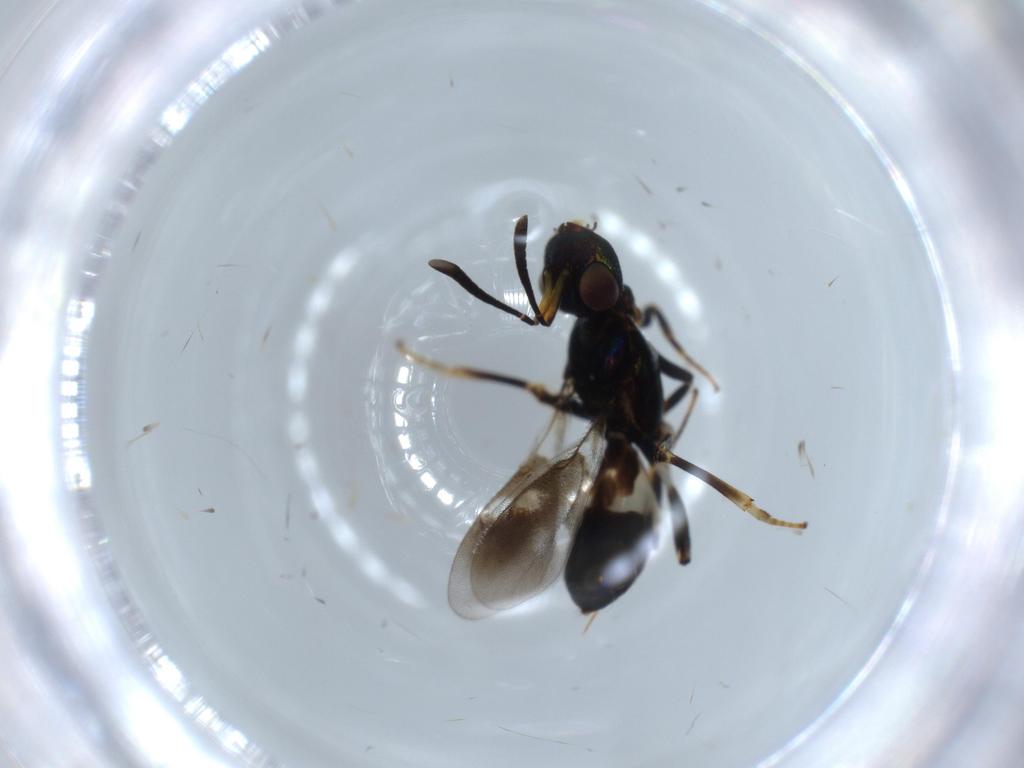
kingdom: Animalia
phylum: Arthropoda
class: Insecta
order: Hymenoptera
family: Eupelmidae
